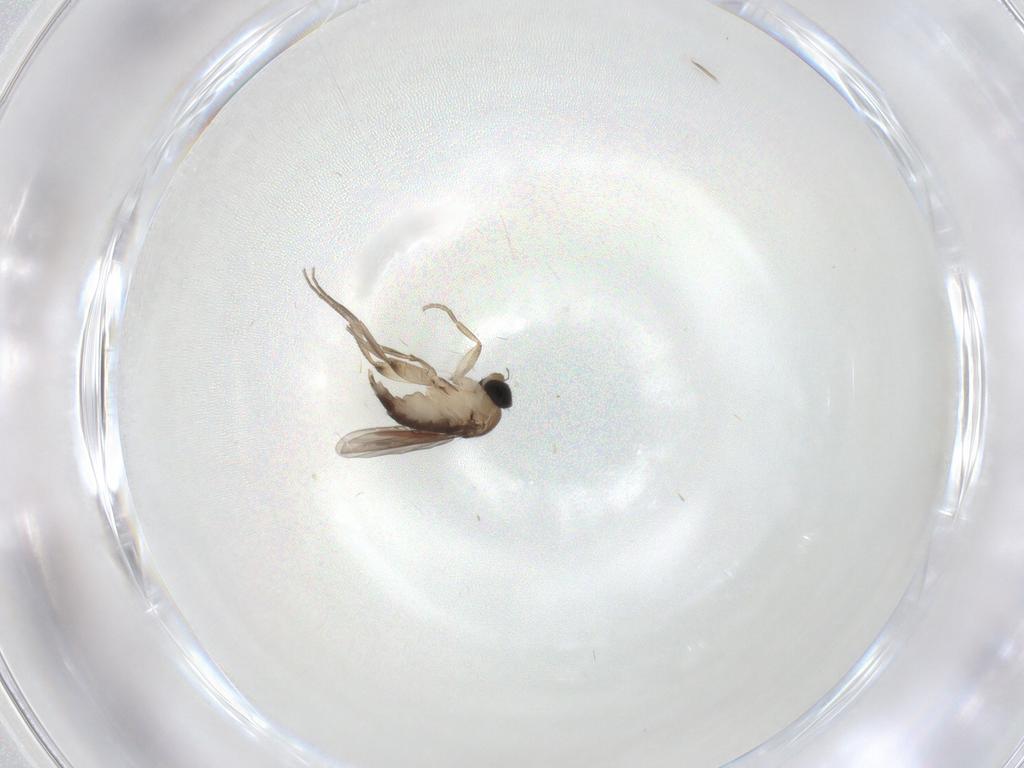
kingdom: Animalia
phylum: Arthropoda
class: Insecta
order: Diptera
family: Phoridae
